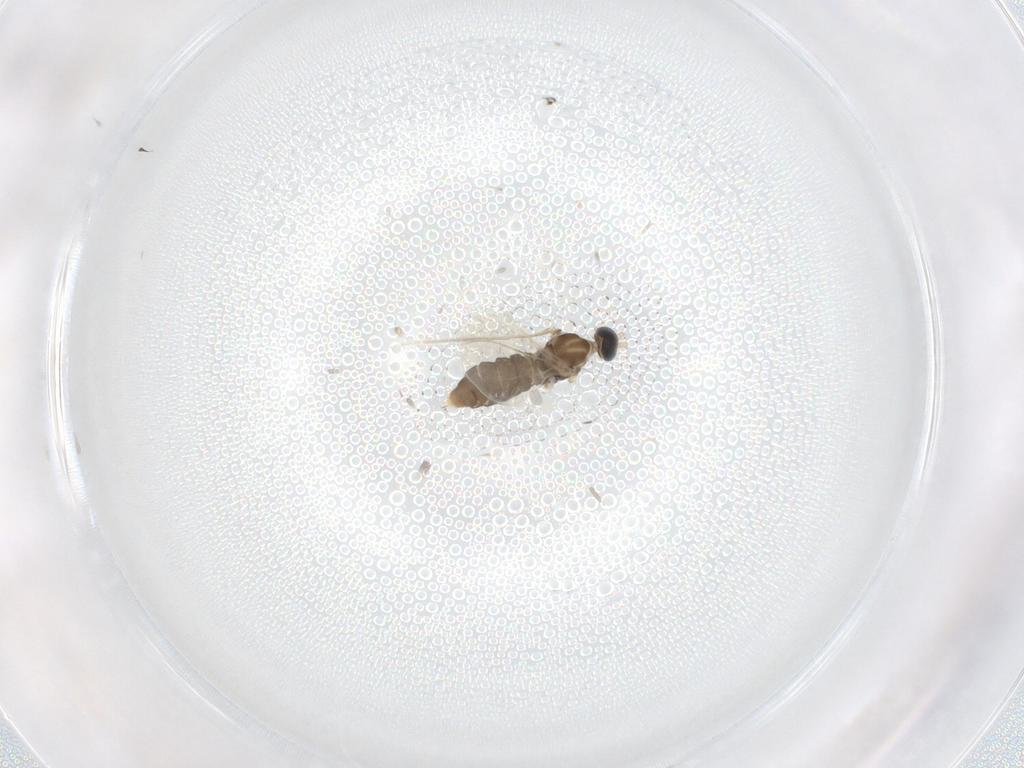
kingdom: Animalia
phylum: Arthropoda
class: Insecta
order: Diptera
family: Cecidomyiidae
